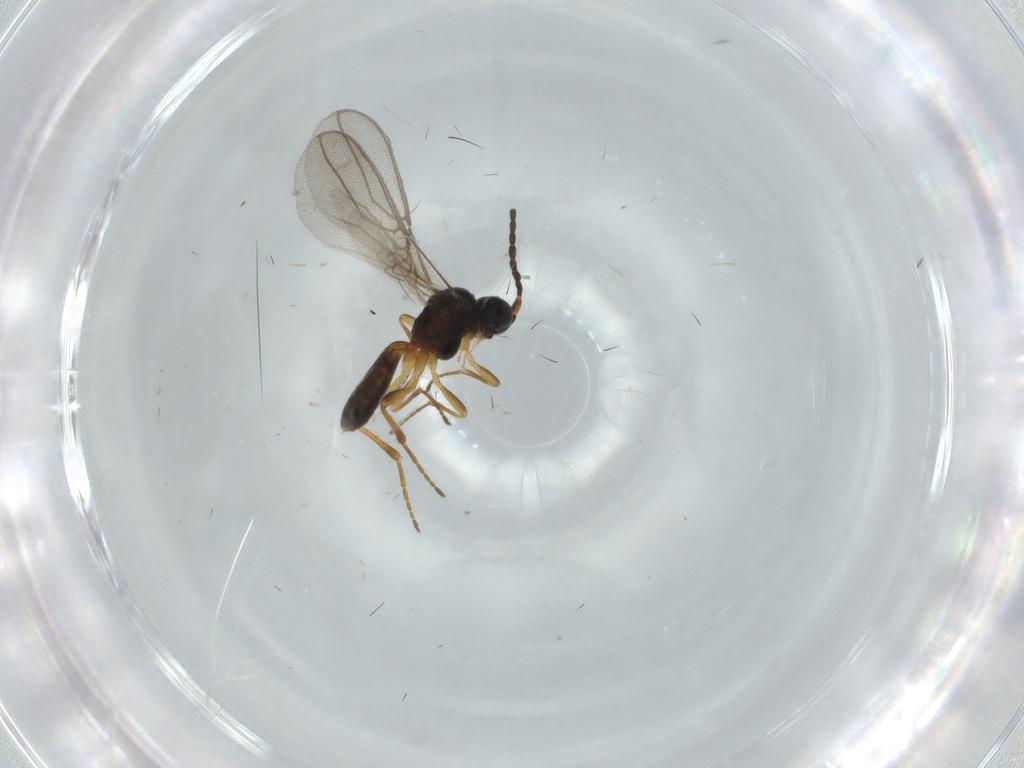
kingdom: Animalia
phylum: Arthropoda
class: Insecta
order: Hymenoptera
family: Braconidae
